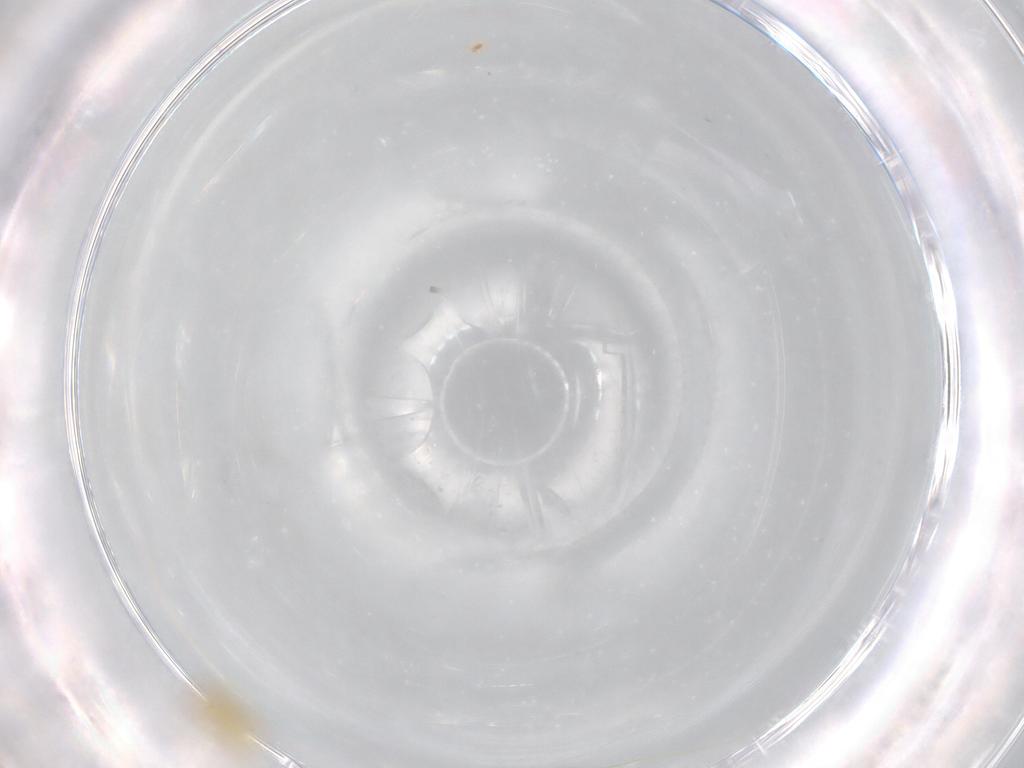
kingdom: Animalia
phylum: Arthropoda
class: Insecta
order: Diptera
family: Cecidomyiidae
